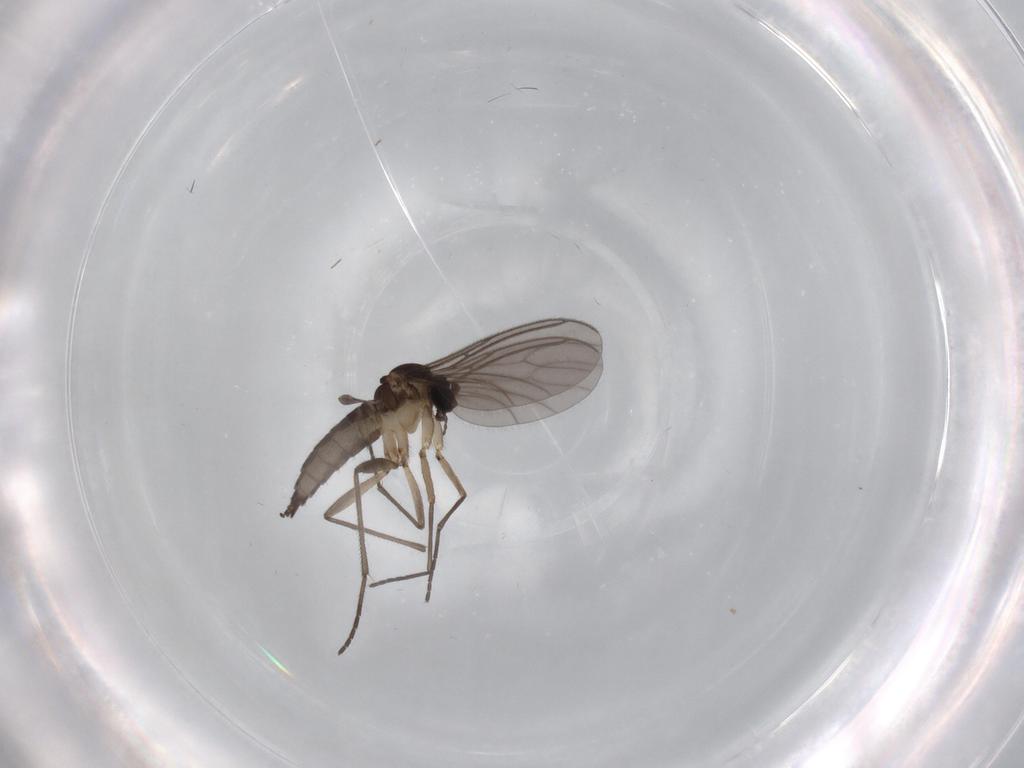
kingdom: Animalia
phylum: Arthropoda
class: Insecta
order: Diptera
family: Sciaridae
